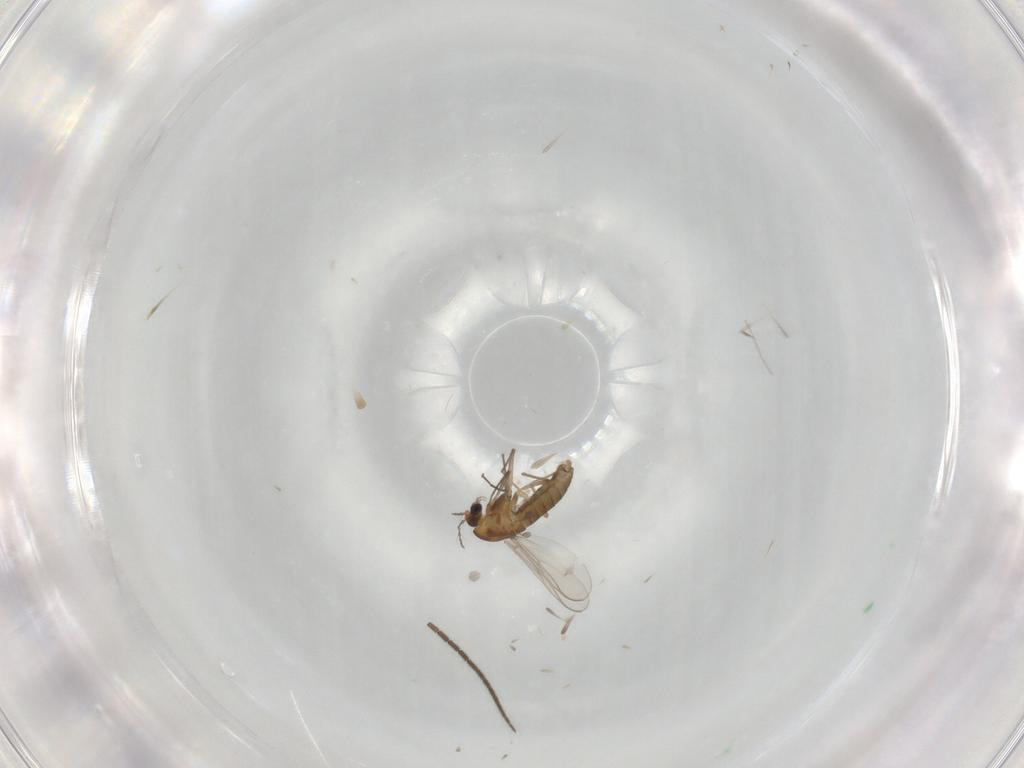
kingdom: Animalia
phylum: Arthropoda
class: Insecta
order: Diptera
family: Chironomidae
